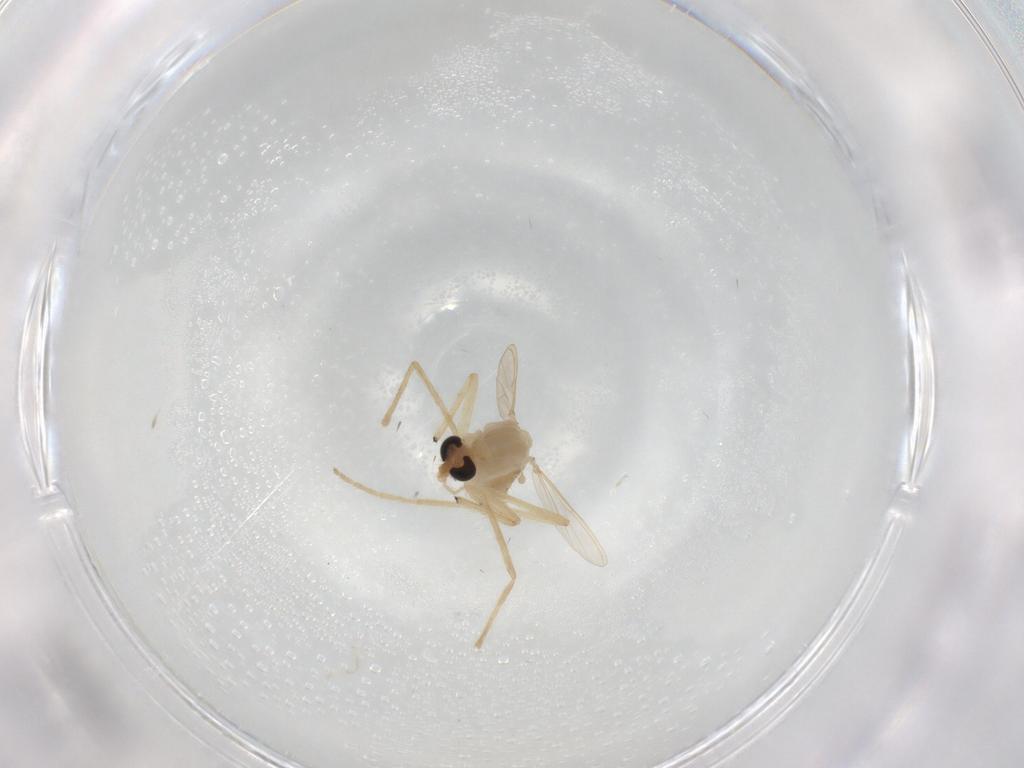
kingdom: Animalia
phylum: Arthropoda
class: Insecta
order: Diptera
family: Chironomidae
